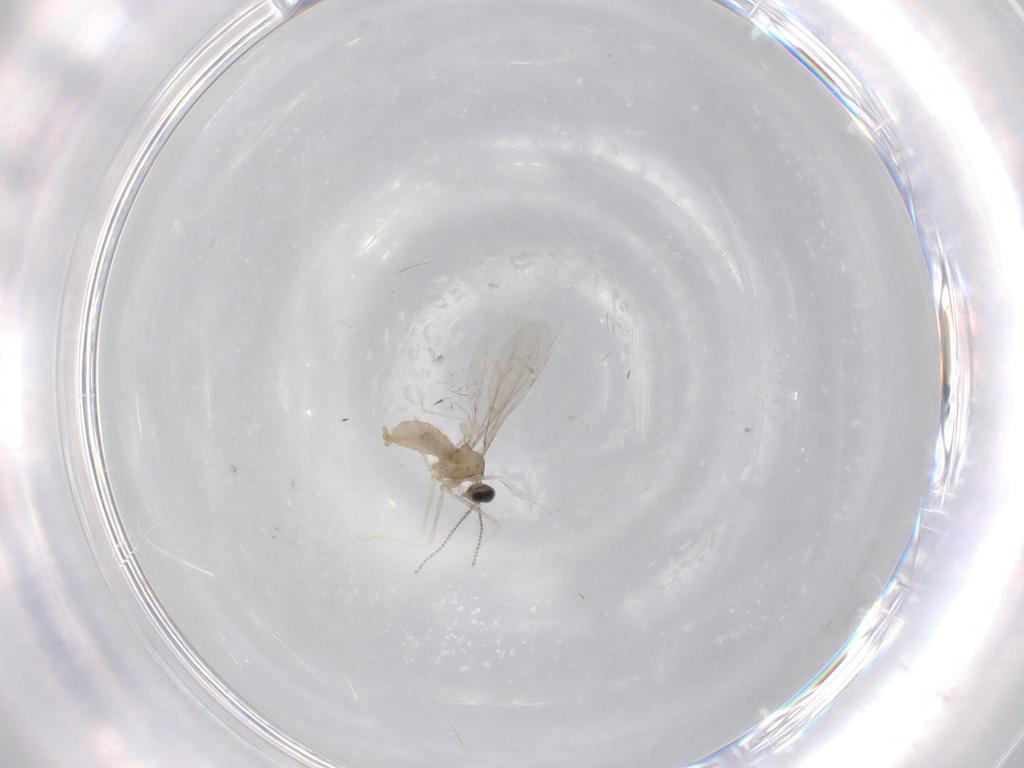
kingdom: Animalia
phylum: Arthropoda
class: Insecta
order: Diptera
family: Cecidomyiidae
